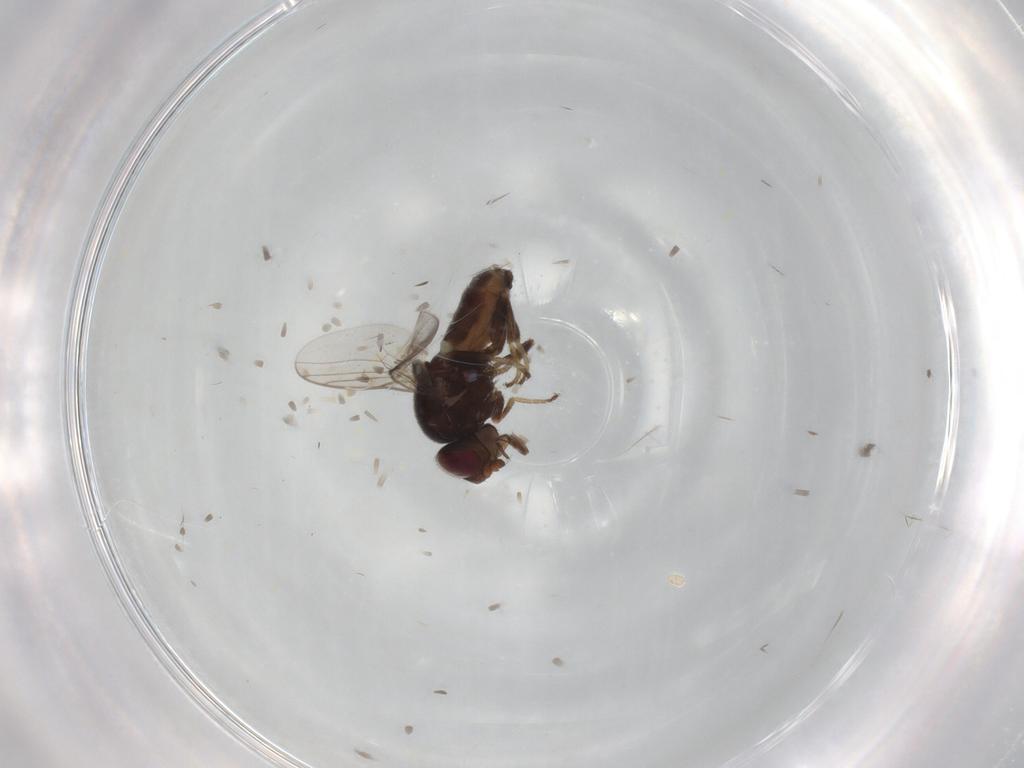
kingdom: Animalia
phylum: Arthropoda
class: Insecta
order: Diptera
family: Chloropidae
